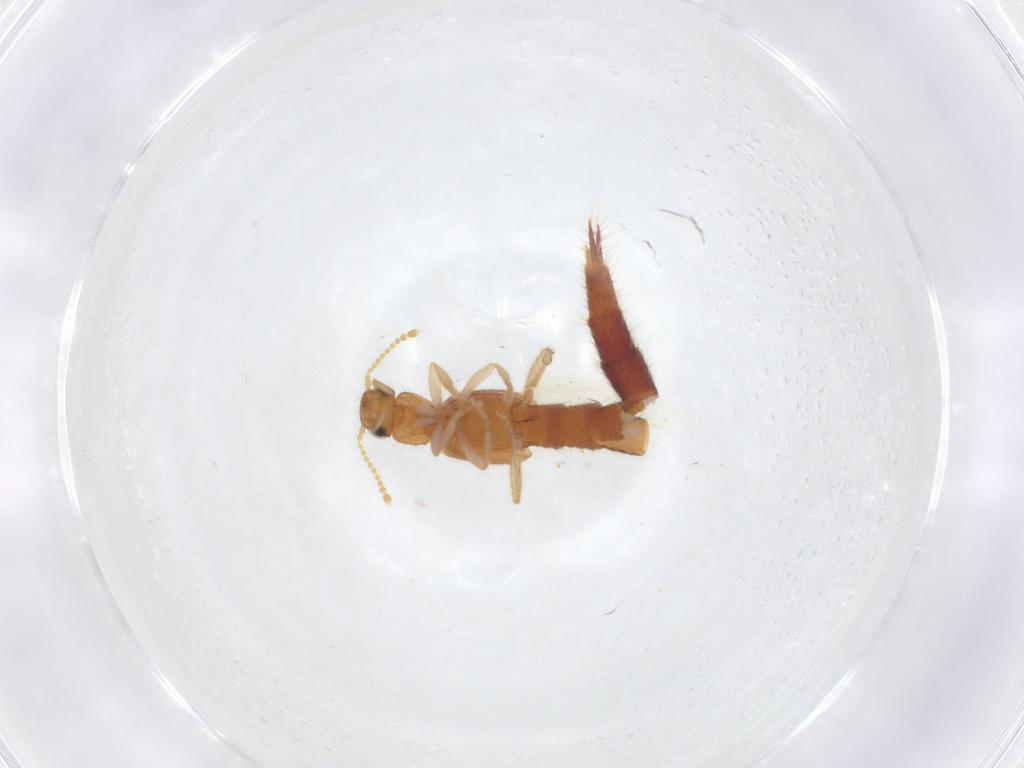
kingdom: Animalia
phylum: Arthropoda
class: Insecta
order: Coleoptera
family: Staphylinidae
